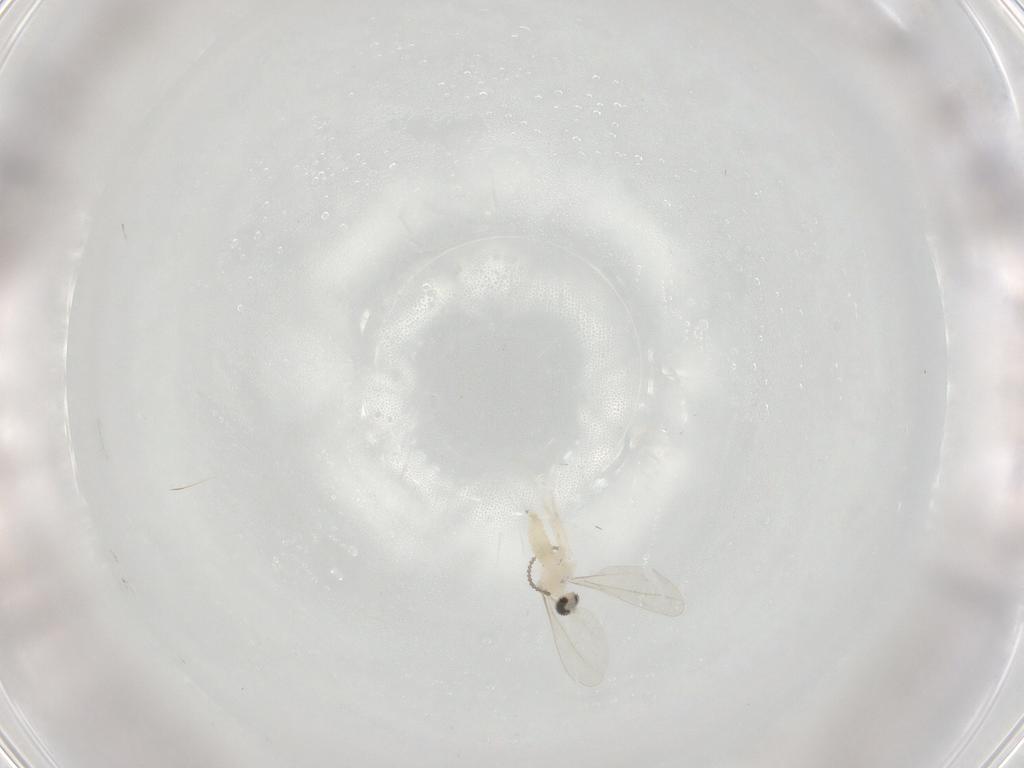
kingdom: Animalia
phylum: Arthropoda
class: Insecta
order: Diptera
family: Cecidomyiidae
